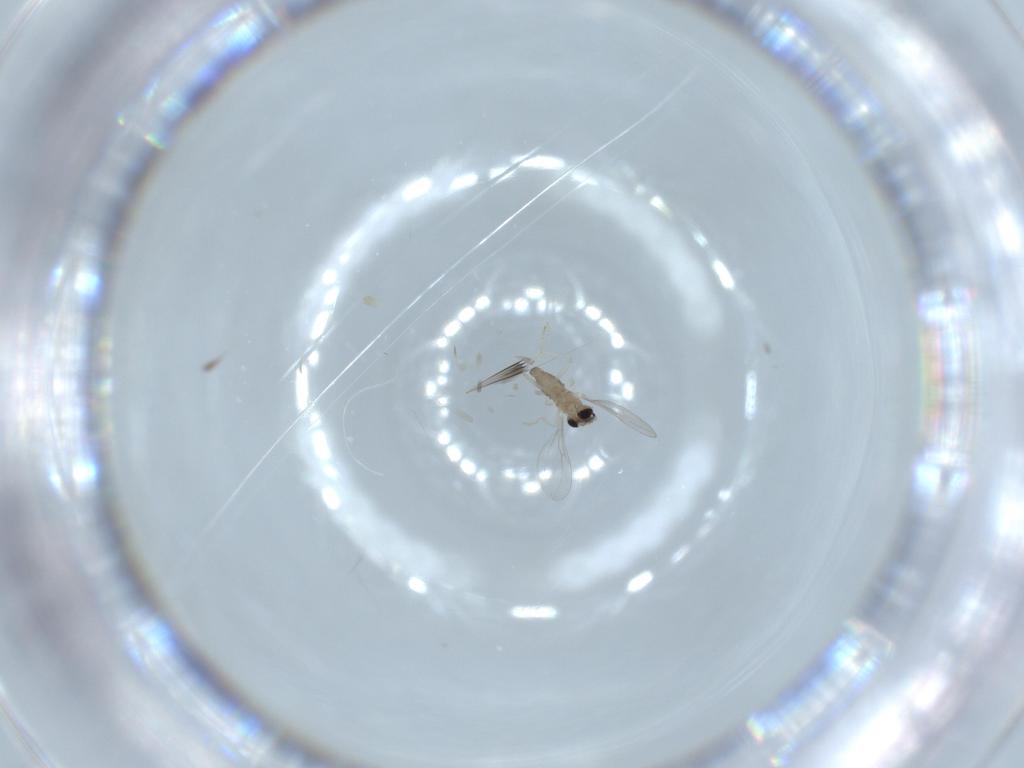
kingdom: Animalia
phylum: Arthropoda
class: Insecta
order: Diptera
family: Cecidomyiidae
